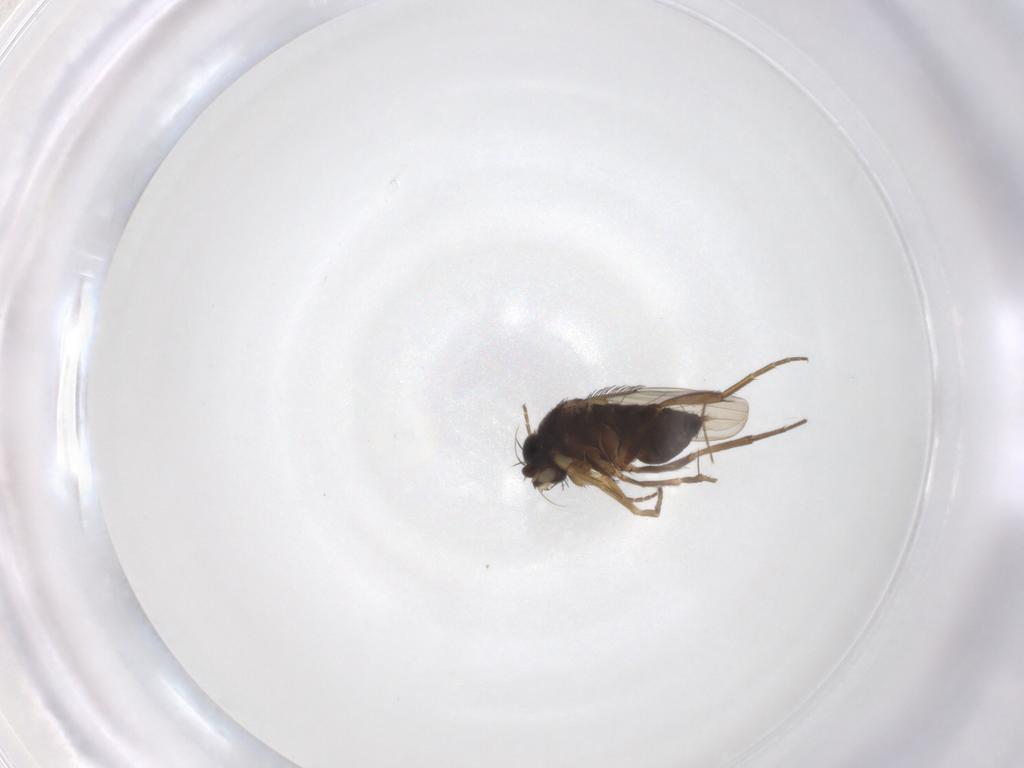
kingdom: Animalia
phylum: Arthropoda
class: Insecta
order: Diptera
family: Phoridae
